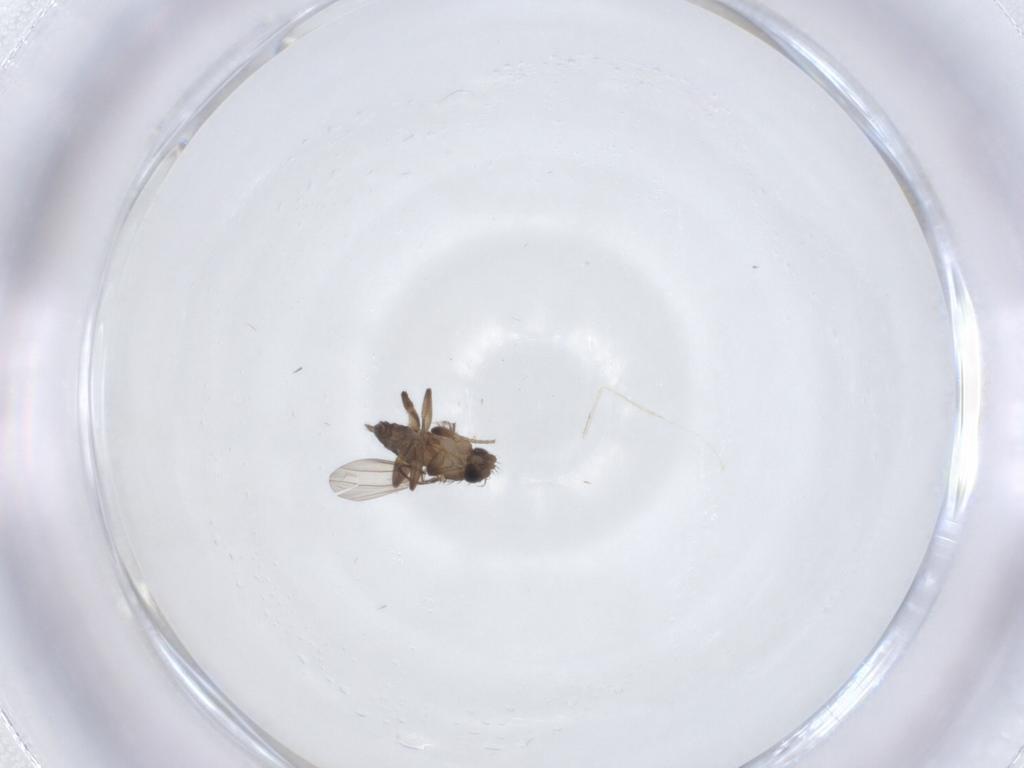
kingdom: Animalia
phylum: Arthropoda
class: Insecta
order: Diptera
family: Phoridae
